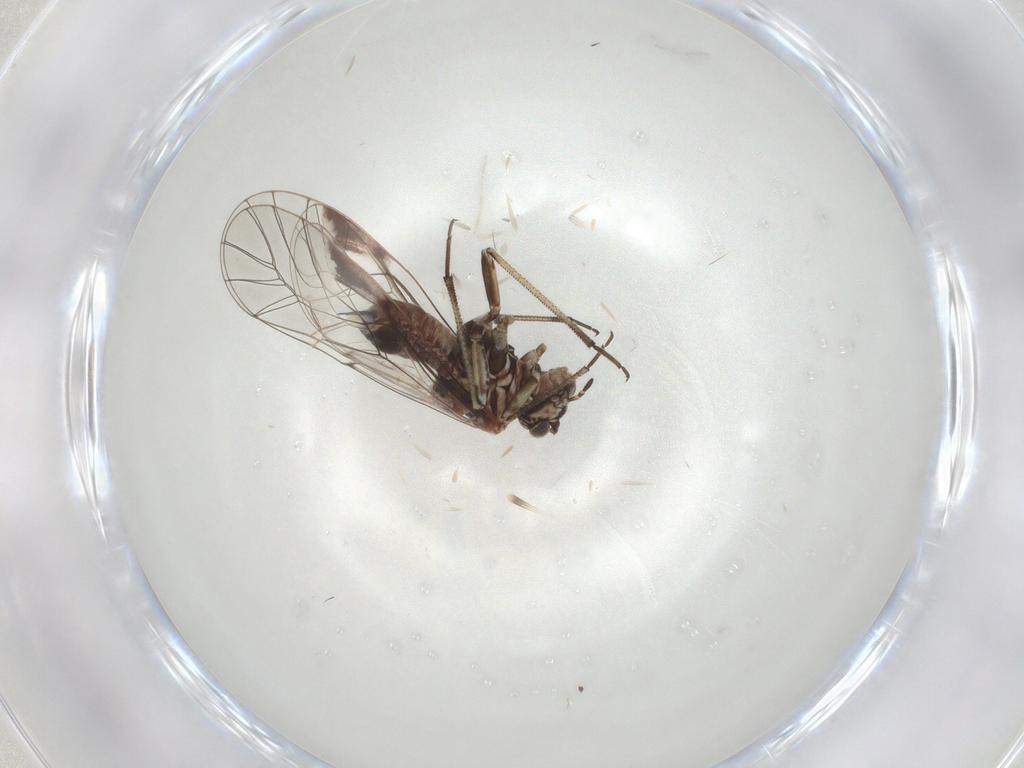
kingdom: Animalia
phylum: Arthropoda
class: Insecta
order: Psocodea
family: Psocidae
